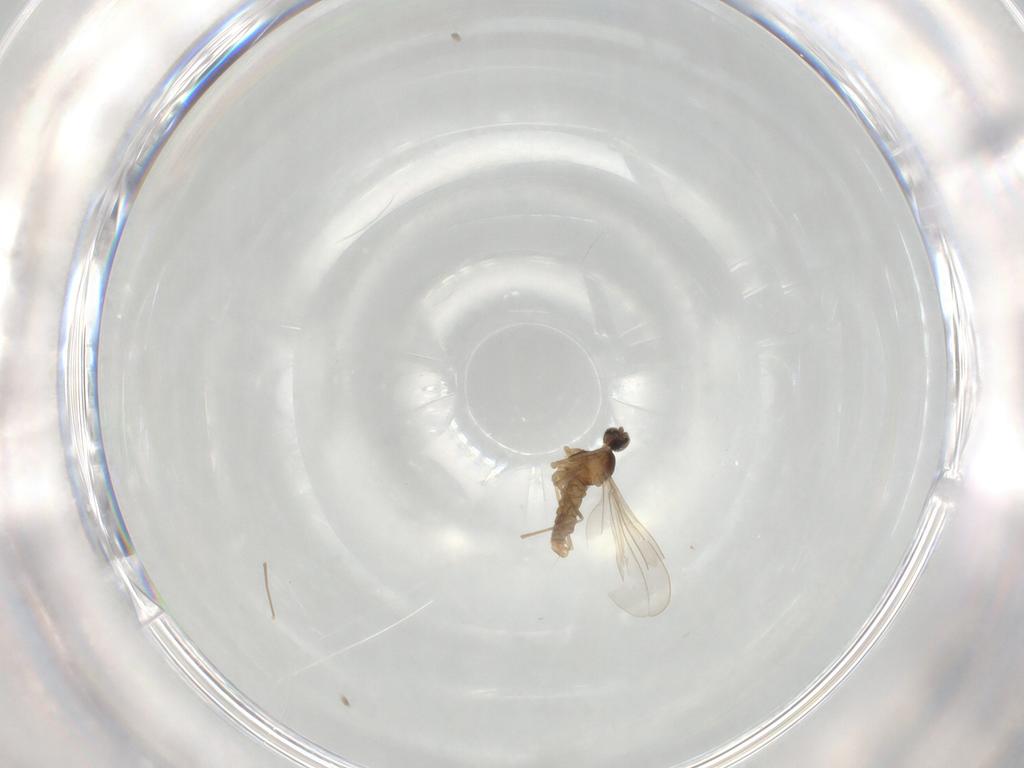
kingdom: Animalia
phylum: Arthropoda
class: Insecta
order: Diptera
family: Cecidomyiidae
